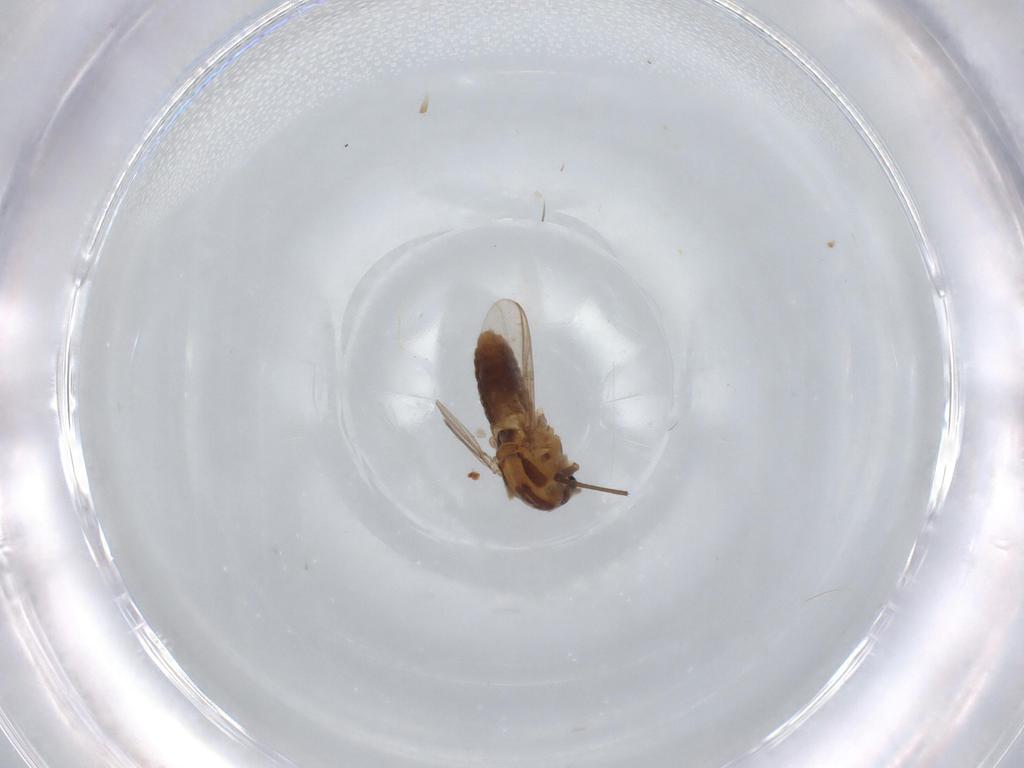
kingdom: Animalia
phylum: Arthropoda
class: Insecta
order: Diptera
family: Chironomidae
